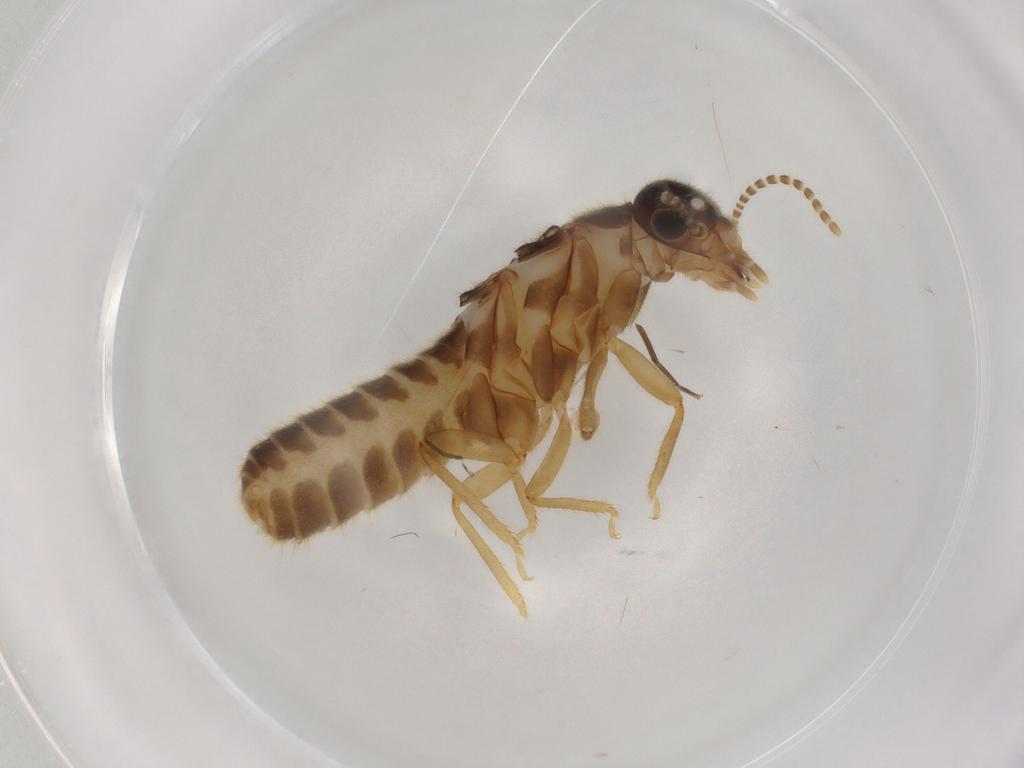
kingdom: Animalia
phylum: Arthropoda
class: Insecta
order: Blattodea
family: Termitidae
